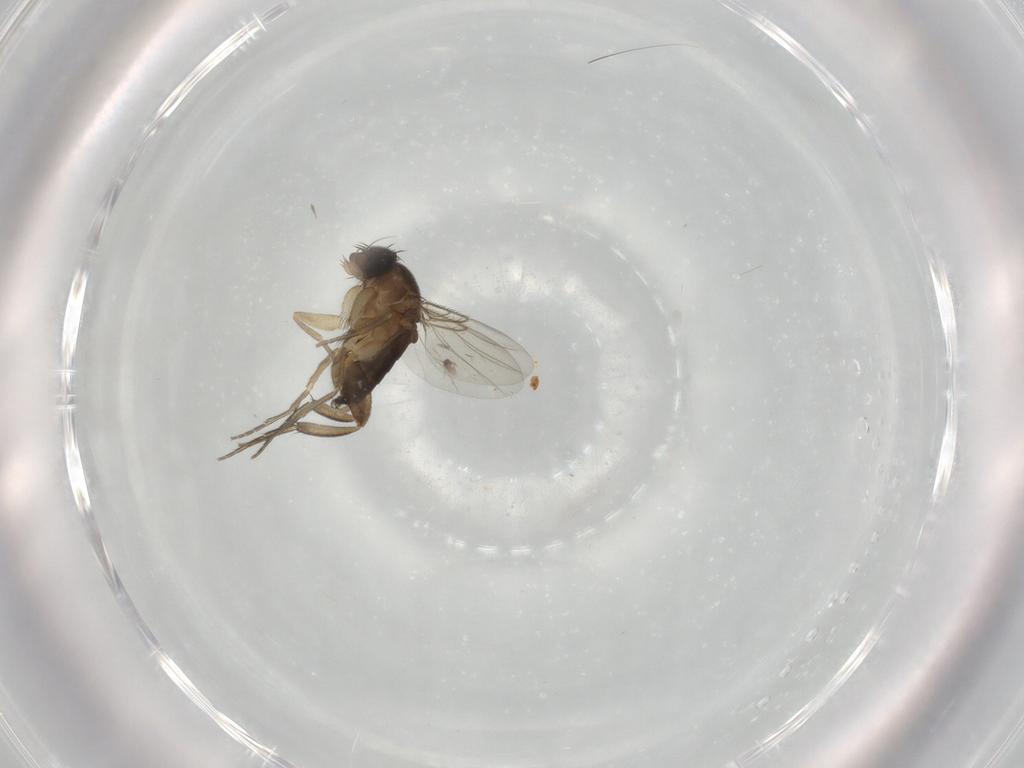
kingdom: Animalia
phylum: Arthropoda
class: Insecta
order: Diptera
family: Phoridae
